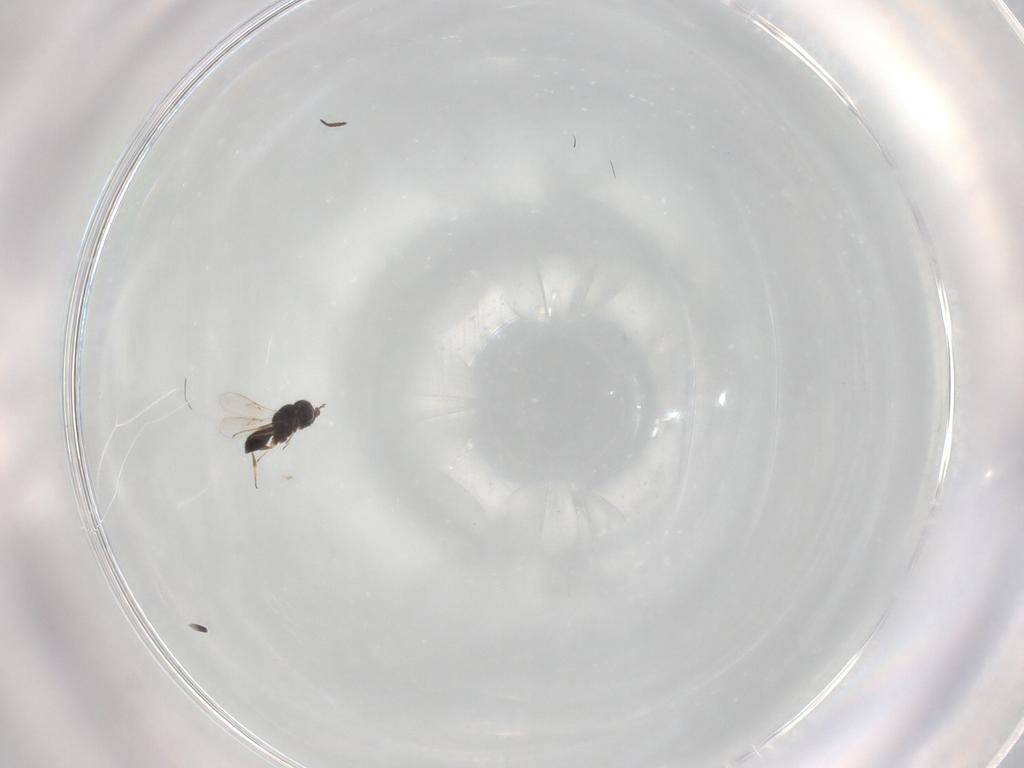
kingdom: Animalia
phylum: Arthropoda
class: Insecta
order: Hymenoptera
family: Scelionidae
